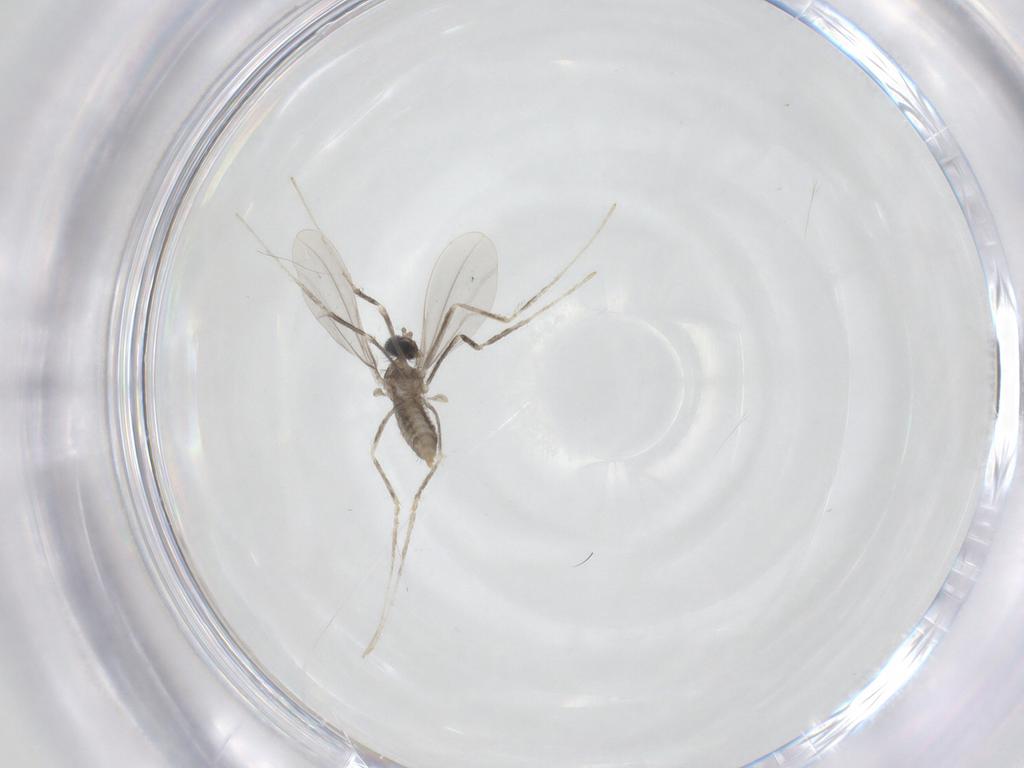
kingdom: Animalia
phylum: Arthropoda
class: Insecta
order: Diptera
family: Cecidomyiidae
